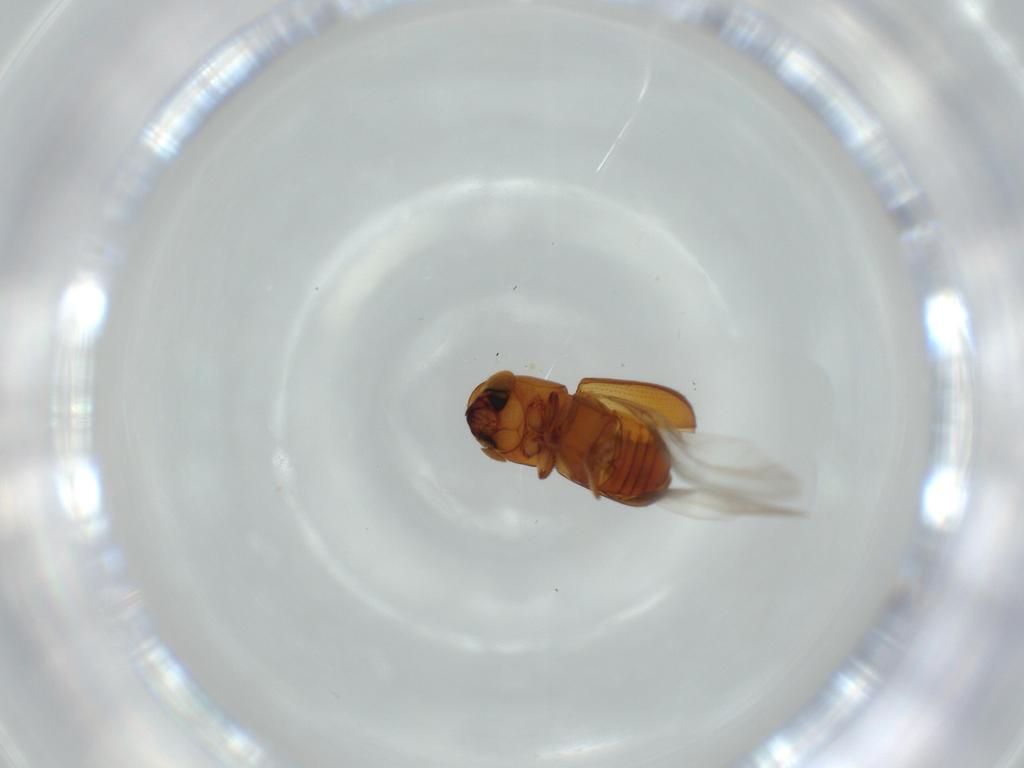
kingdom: Animalia
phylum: Arthropoda
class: Insecta
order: Coleoptera
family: Curculionidae
